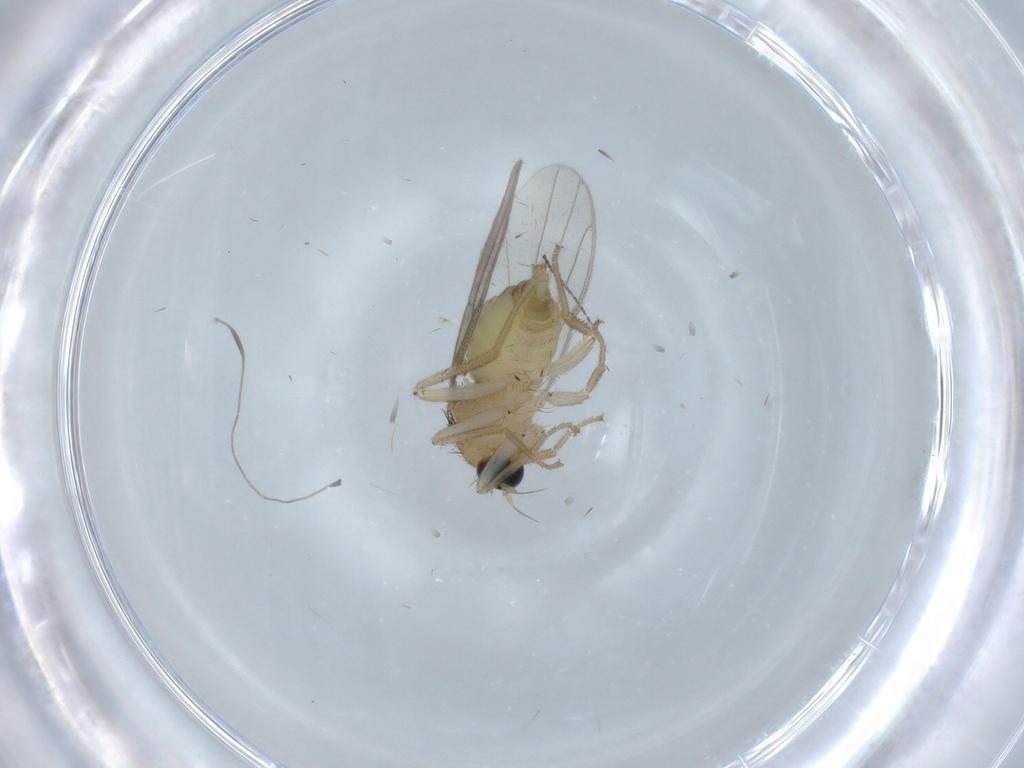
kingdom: Animalia
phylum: Arthropoda
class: Insecta
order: Diptera
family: Hybotidae
